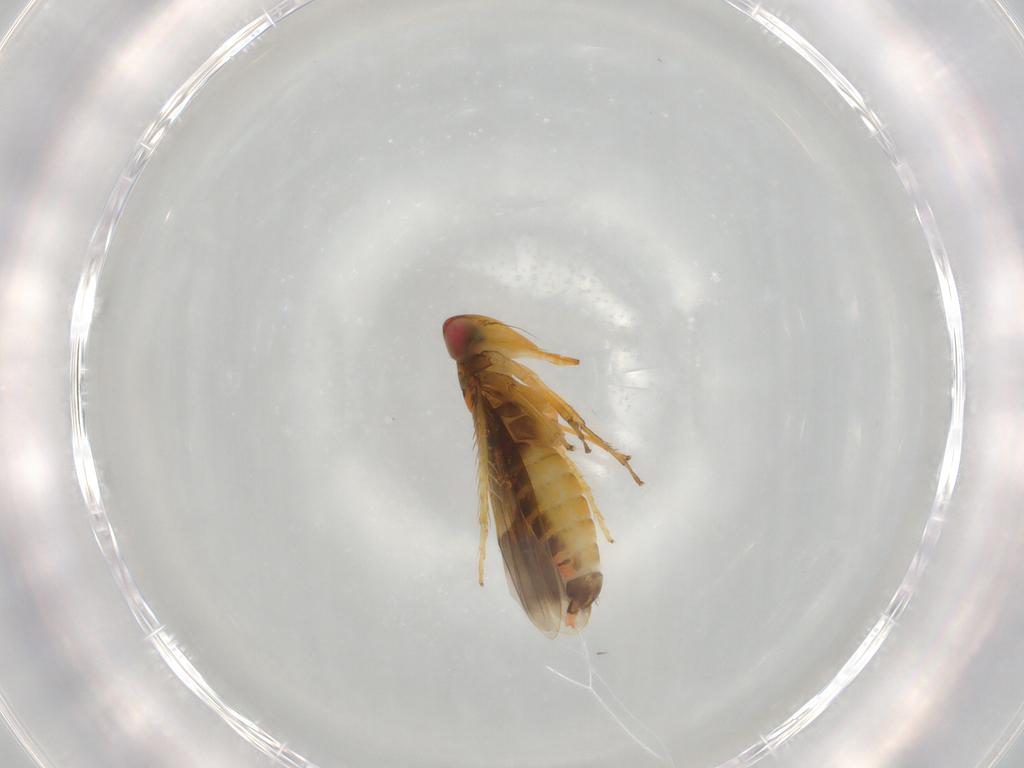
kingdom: Animalia
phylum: Arthropoda
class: Insecta
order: Hemiptera
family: Cicadellidae
